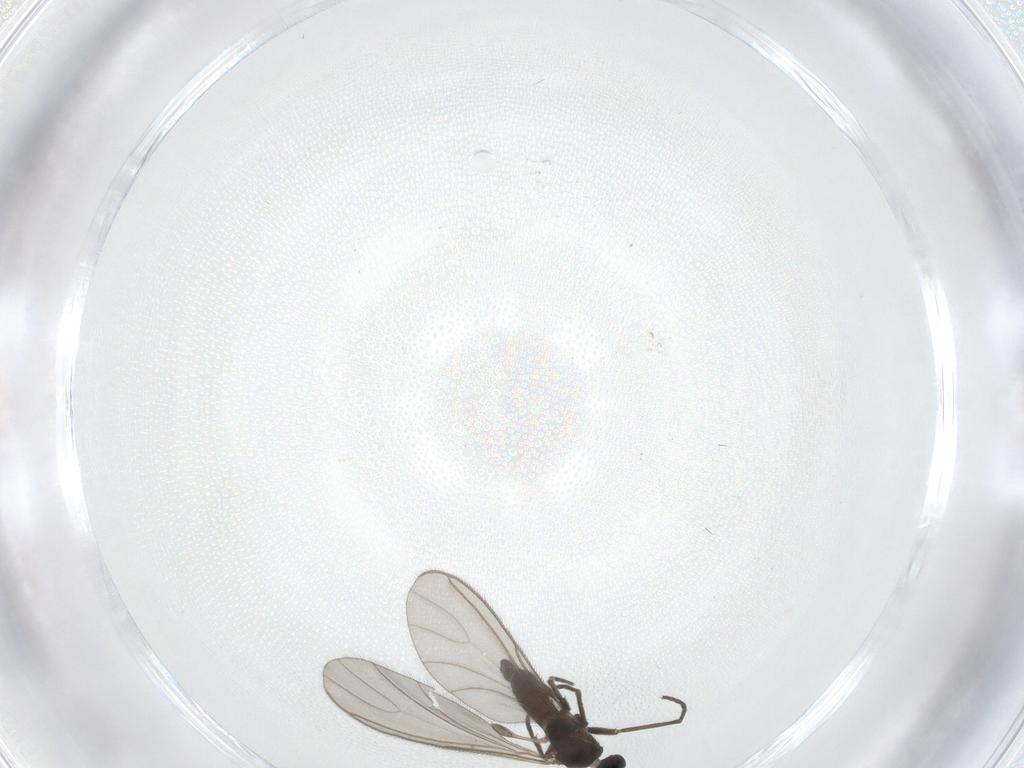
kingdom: Animalia
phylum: Arthropoda
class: Insecta
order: Diptera
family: Sciaridae
